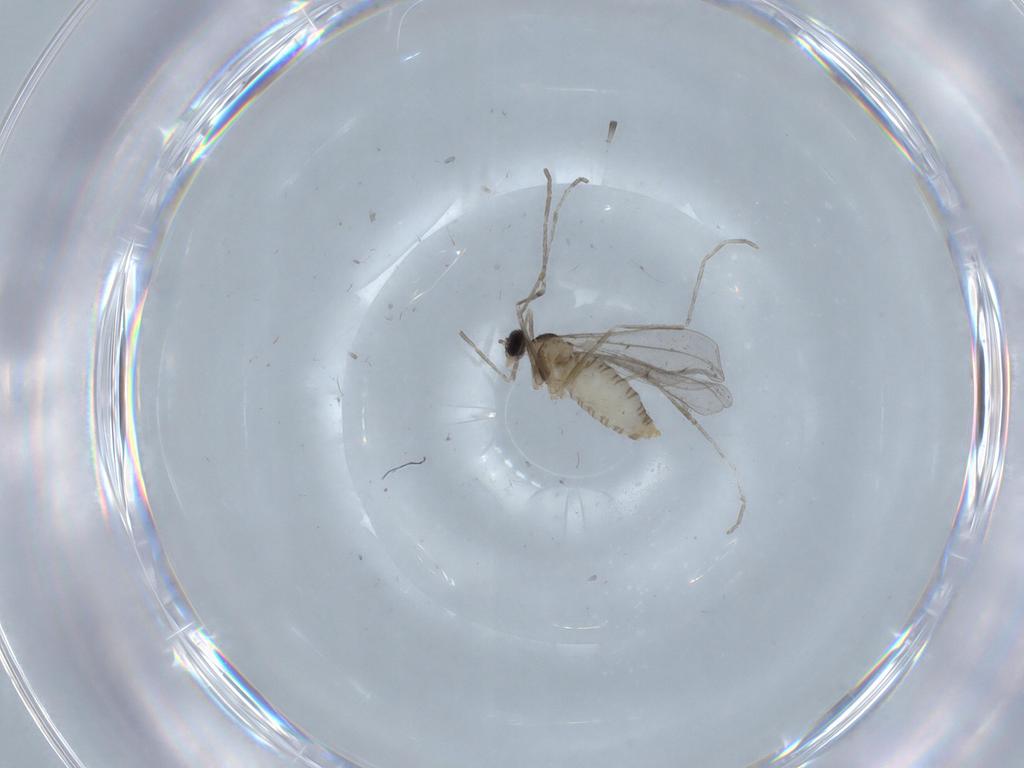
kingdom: Animalia
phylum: Arthropoda
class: Insecta
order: Diptera
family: Cecidomyiidae
